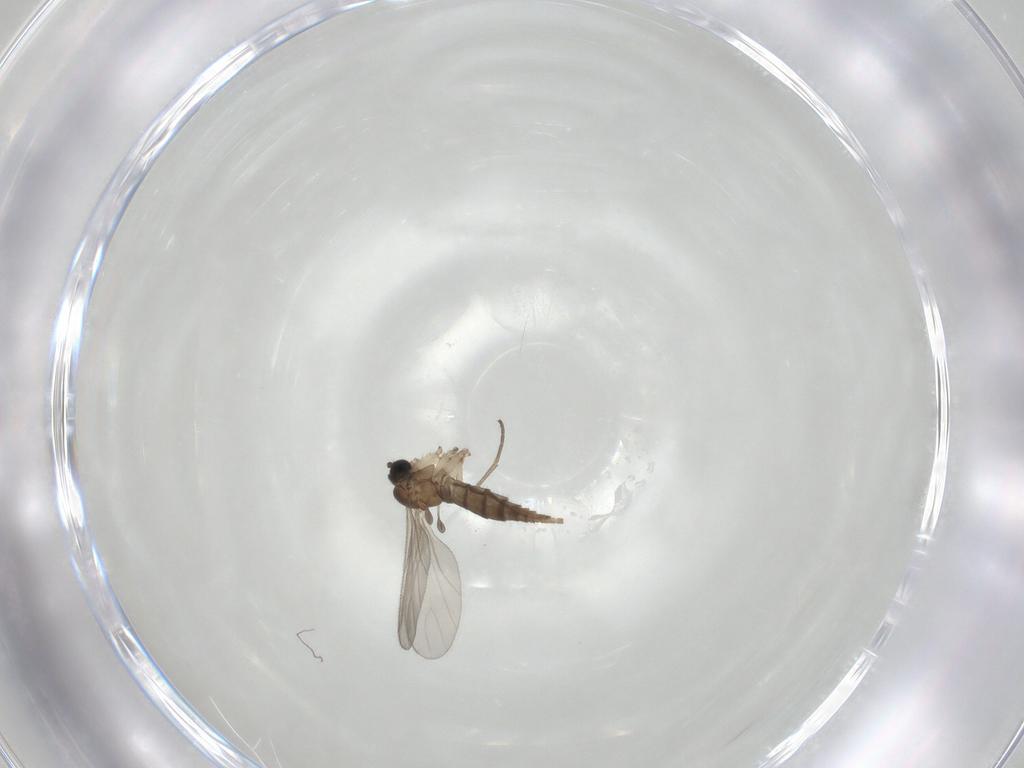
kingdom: Animalia
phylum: Arthropoda
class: Insecta
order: Diptera
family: Sciaridae
